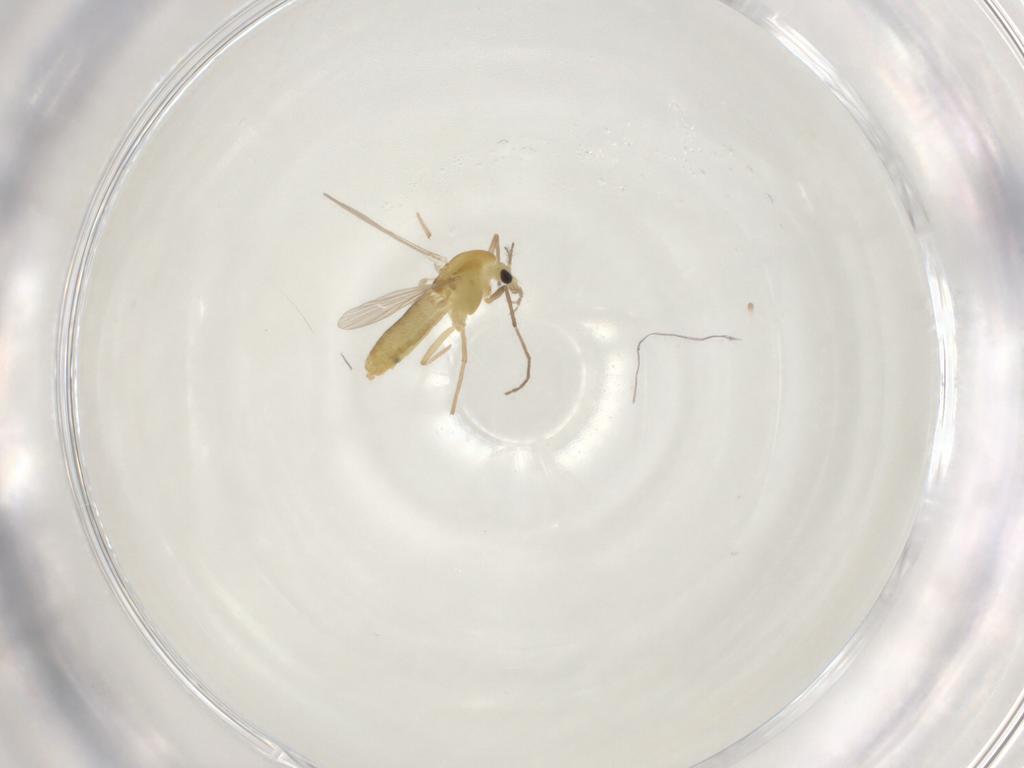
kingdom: Animalia
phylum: Arthropoda
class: Insecta
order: Diptera
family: Chironomidae
